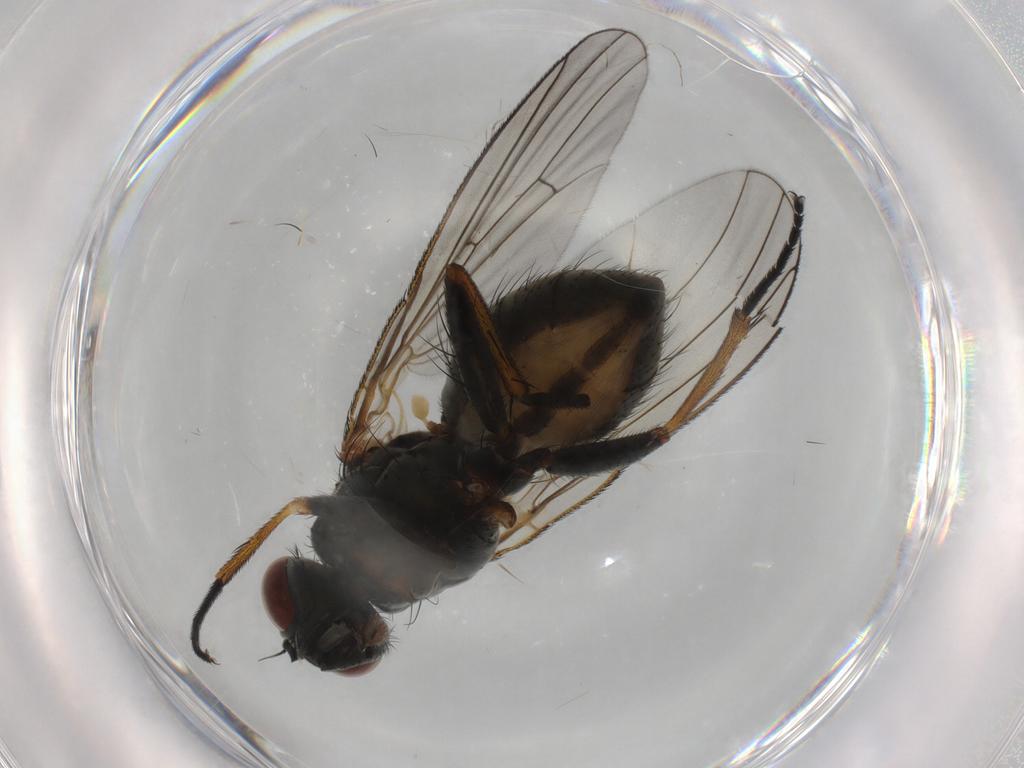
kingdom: Animalia
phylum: Arthropoda
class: Insecta
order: Diptera
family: Muscidae
